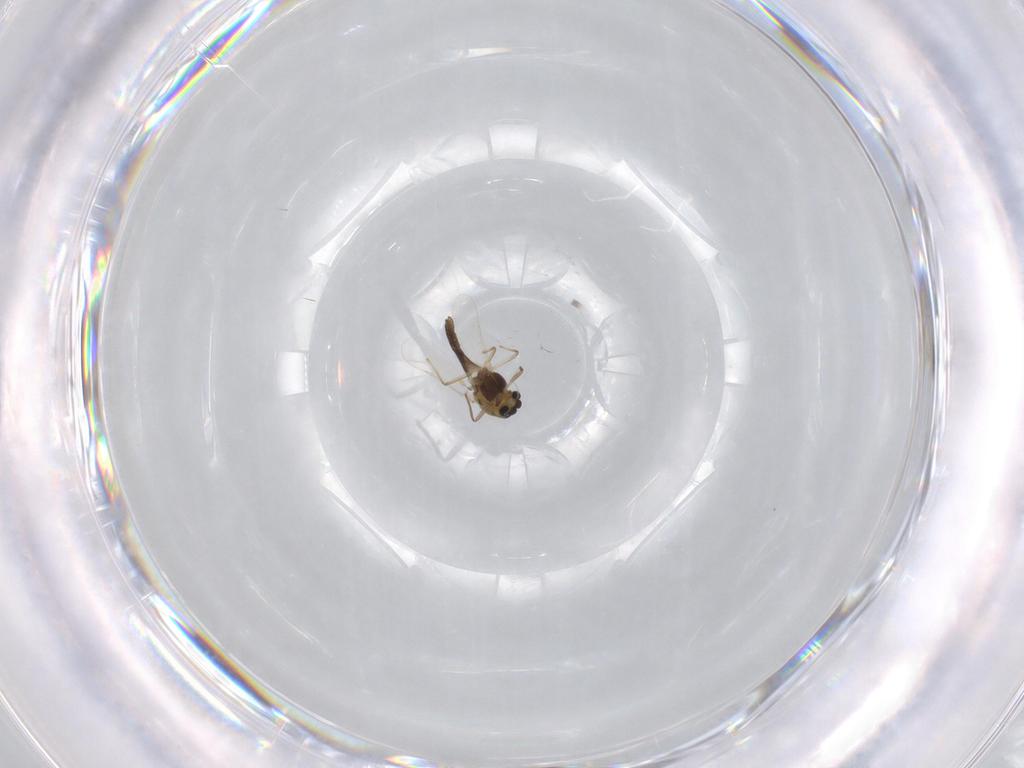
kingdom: Animalia
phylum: Arthropoda
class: Insecta
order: Diptera
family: Chironomidae
